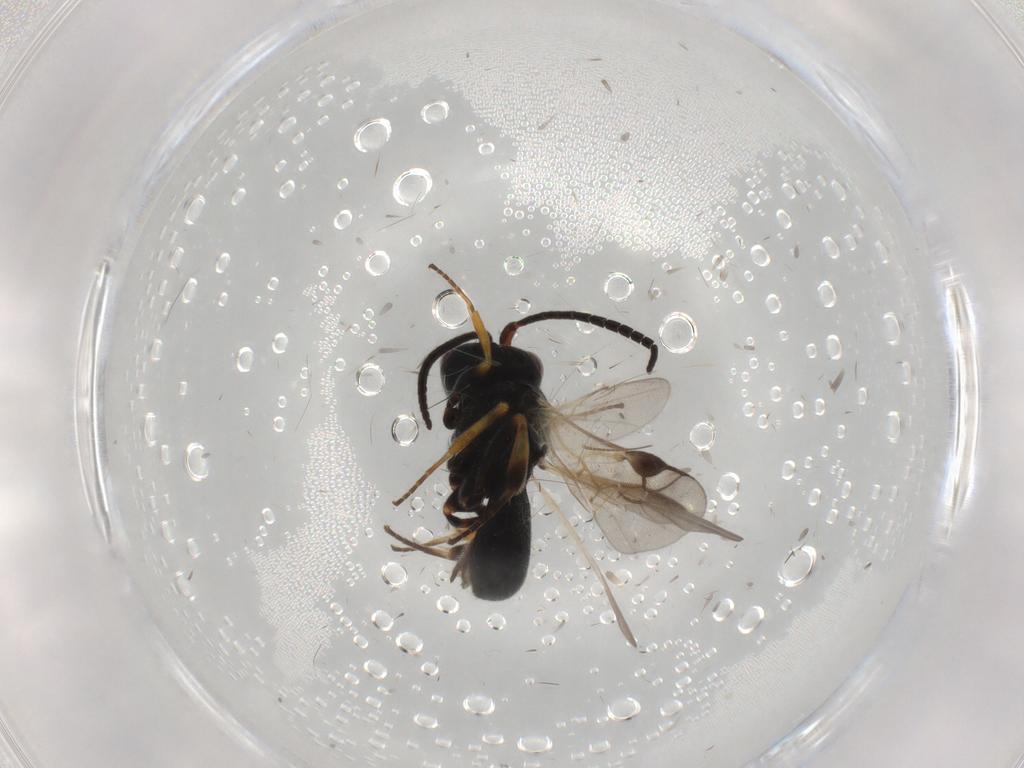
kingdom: Animalia
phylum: Arthropoda
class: Insecta
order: Hymenoptera
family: Braconidae
